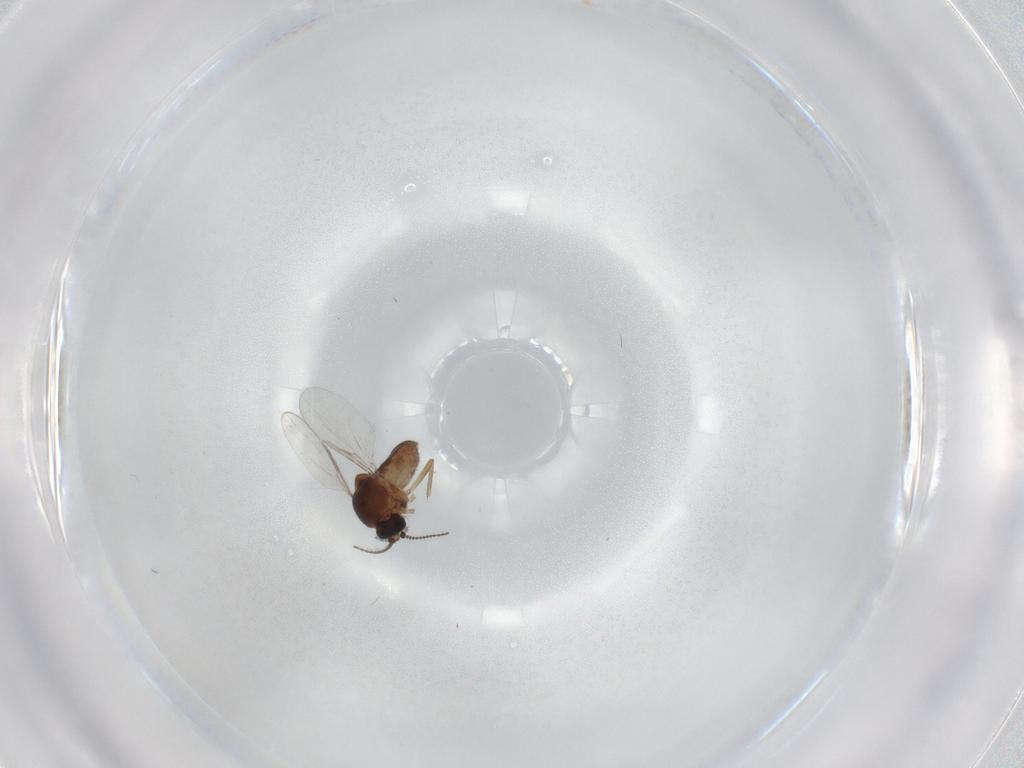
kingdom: Animalia
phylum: Arthropoda
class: Insecta
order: Diptera
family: Ceratopogonidae
